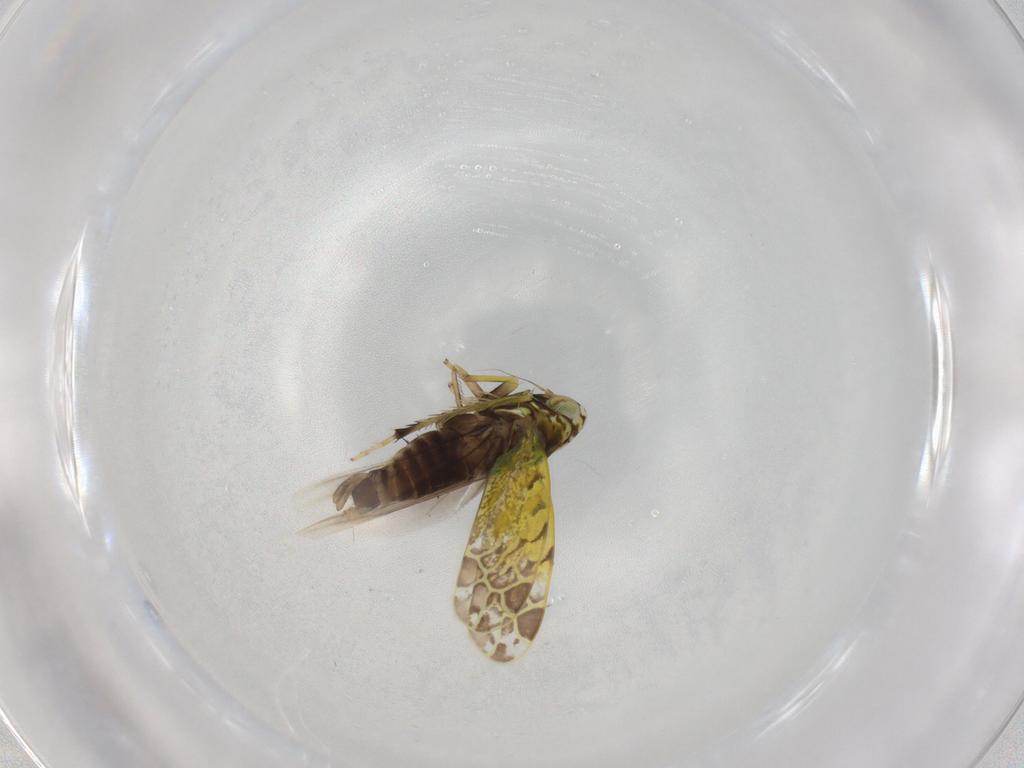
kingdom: Animalia
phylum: Arthropoda
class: Insecta
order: Hemiptera
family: Cicadellidae
